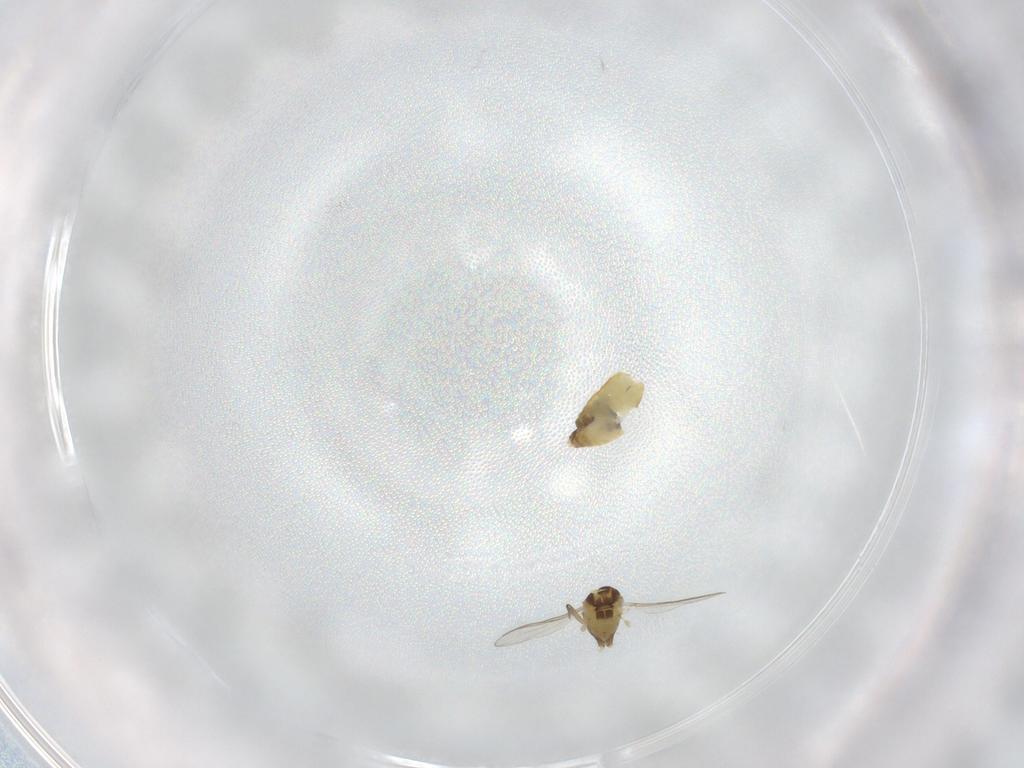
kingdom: Animalia
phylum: Arthropoda
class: Insecta
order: Diptera
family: Chironomidae
